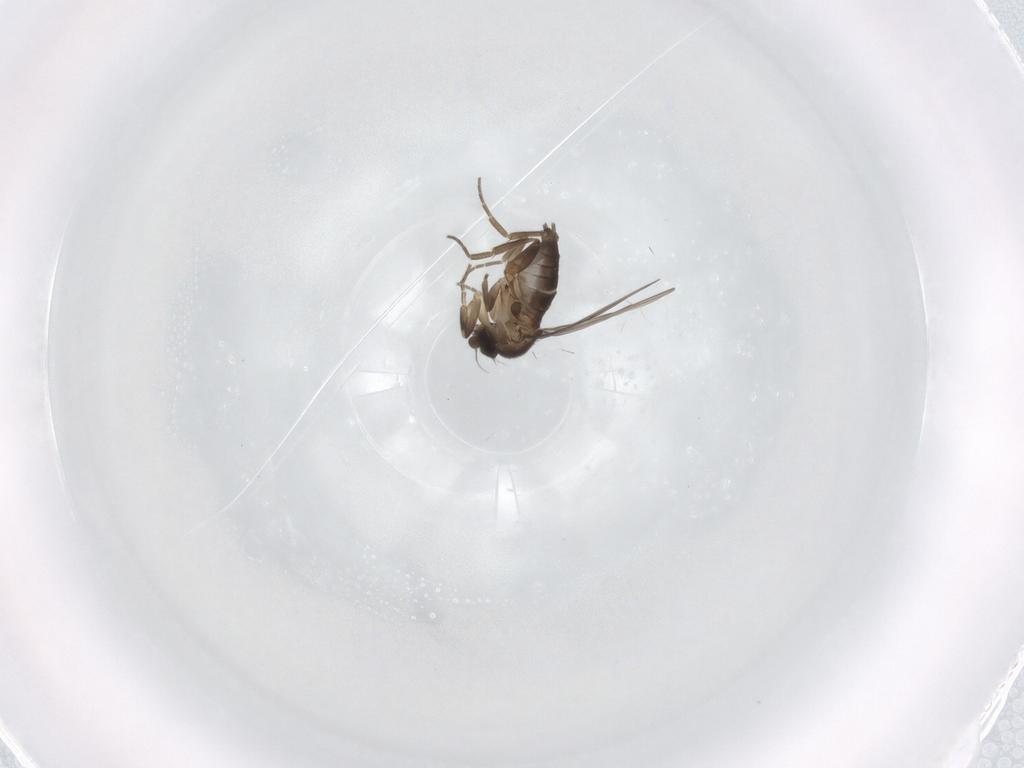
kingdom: Animalia
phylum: Arthropoda
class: Insecta
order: Diptera
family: Phoridae
